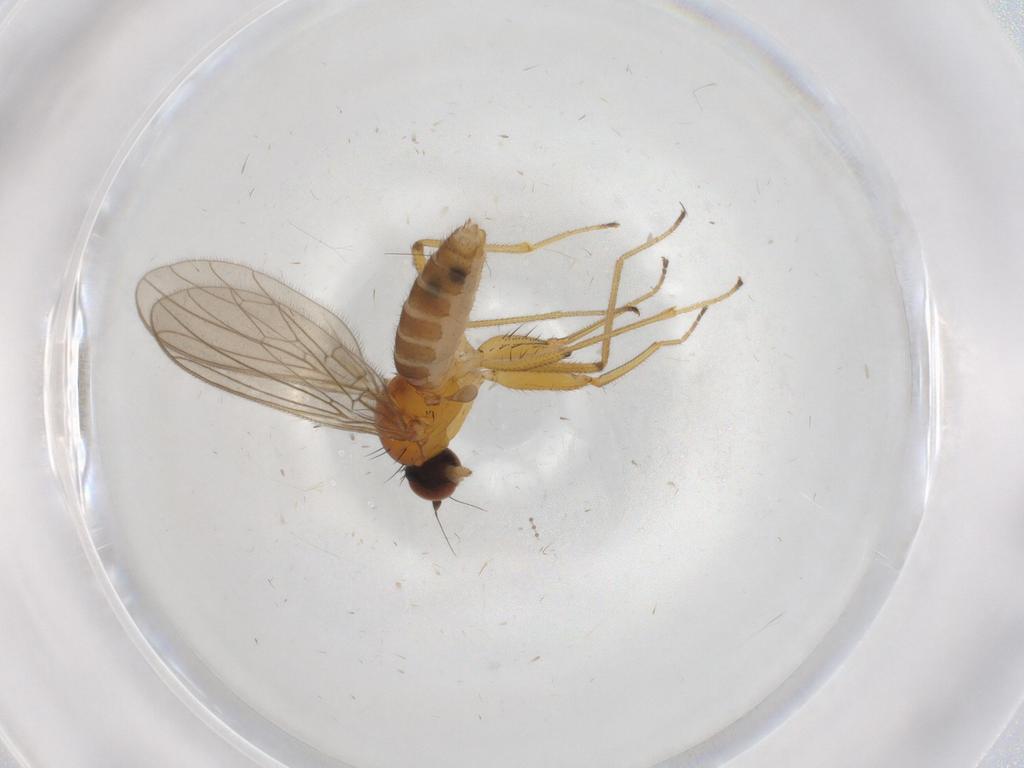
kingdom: Animalia
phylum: Arthropoda
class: Insecta
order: Diptera
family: Empididae
